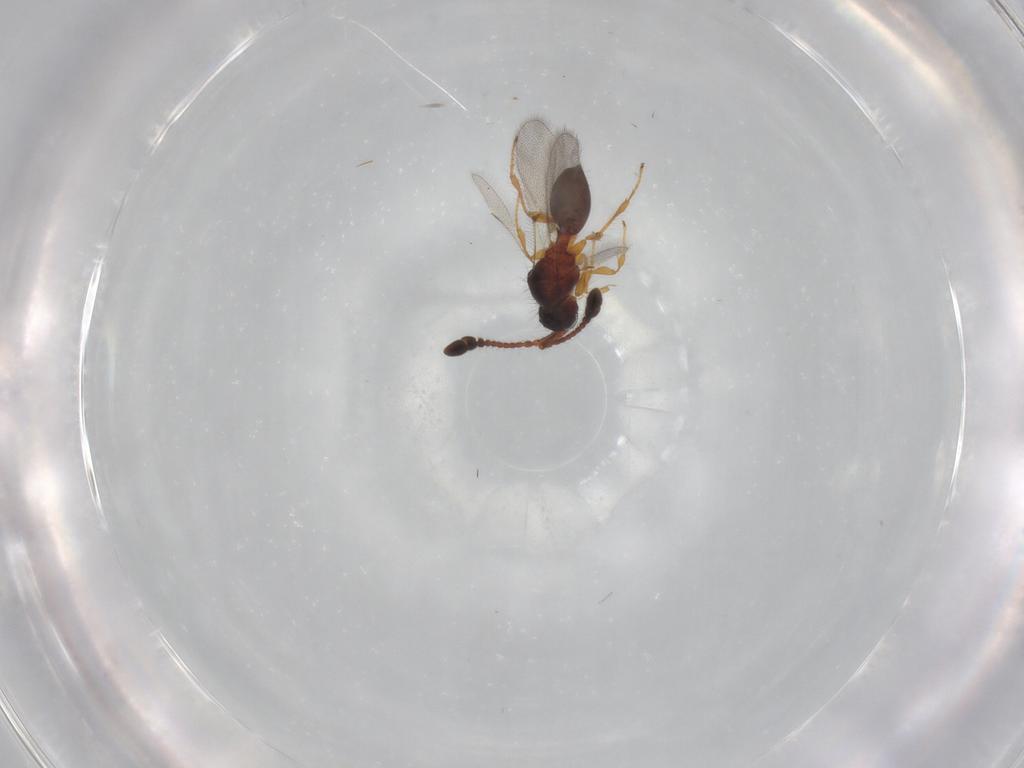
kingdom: Animalia
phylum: Arthropoda
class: Insecta
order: Hymenoptera
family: Diapriidae
